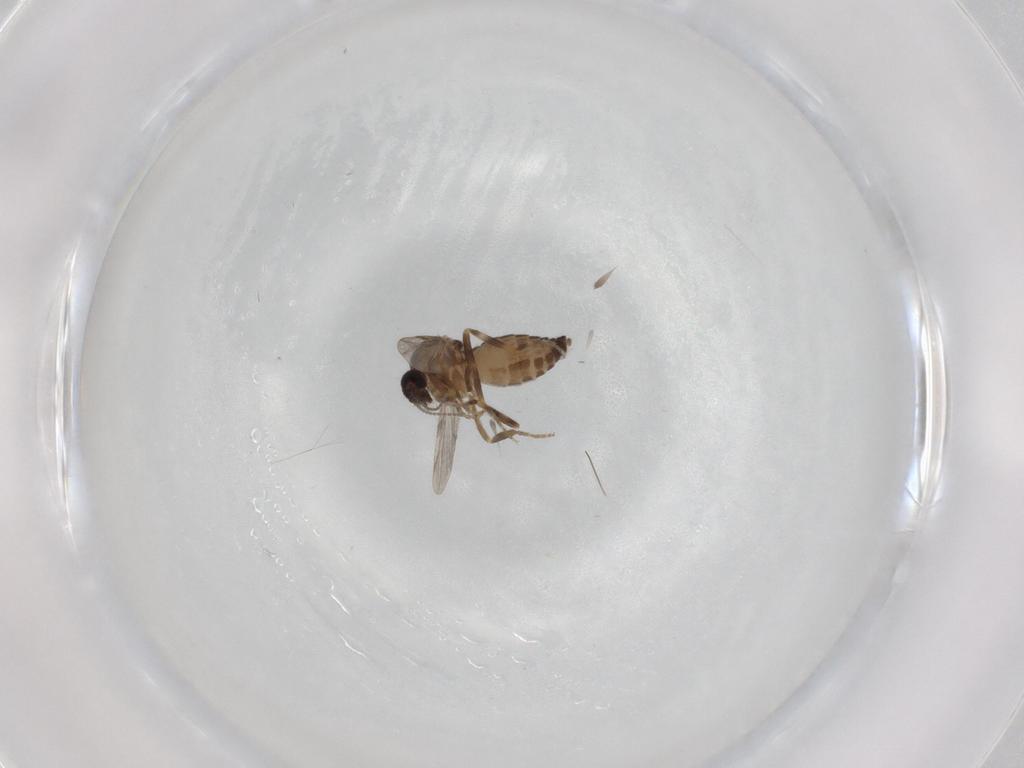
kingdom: Animalia
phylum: Arthropoda
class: Insecta
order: Diptera
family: Ceratopogonidae
